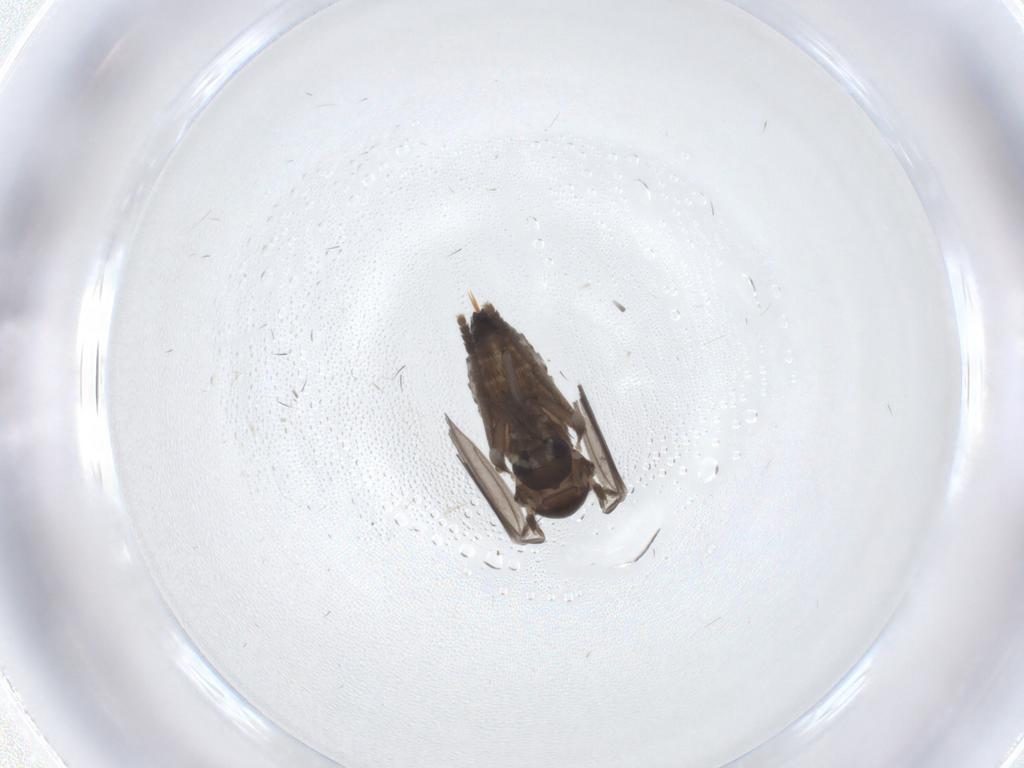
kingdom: Animalia
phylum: Arthropoda
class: Insecta
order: Diptera
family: Psychodidae
